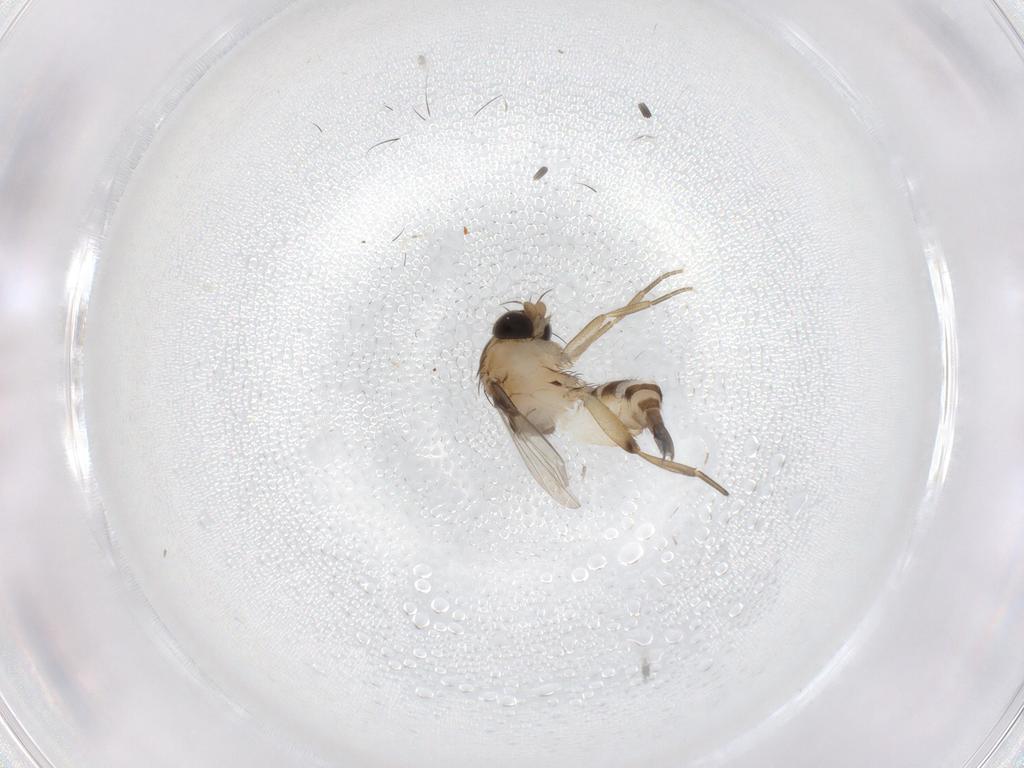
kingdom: Animalia
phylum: Arthropoda
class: Insecta
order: Diptera
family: Phoridae
